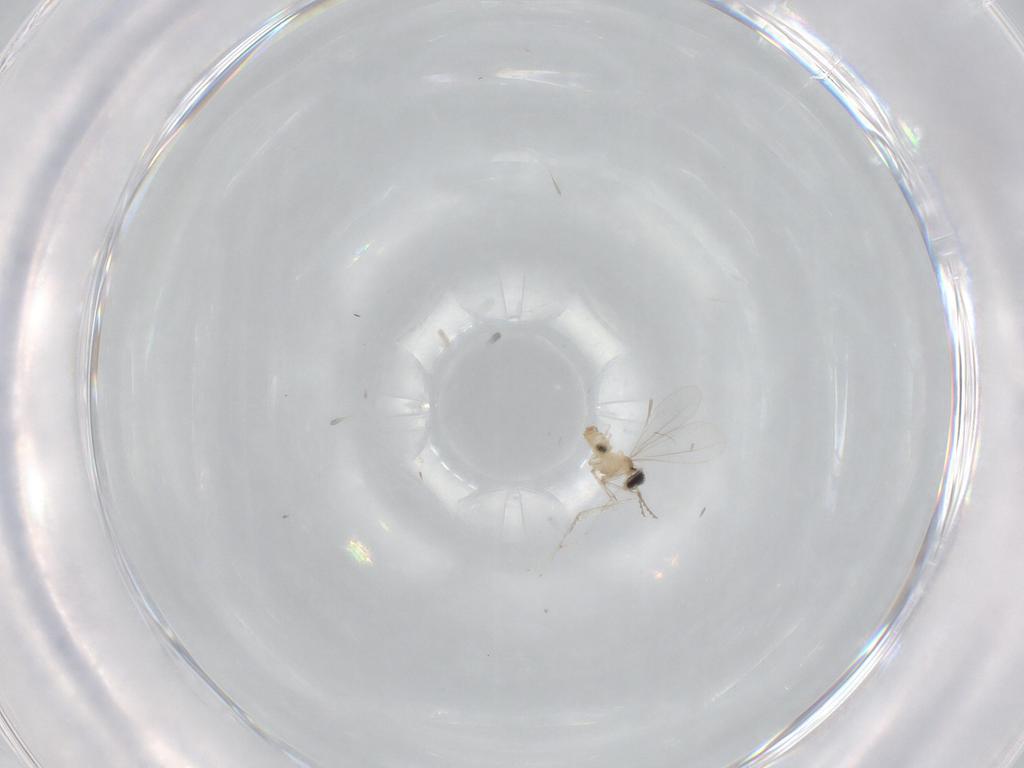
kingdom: Animalia
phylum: Arthropoda
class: Insecta
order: Diptera
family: Cecidomyiidae
